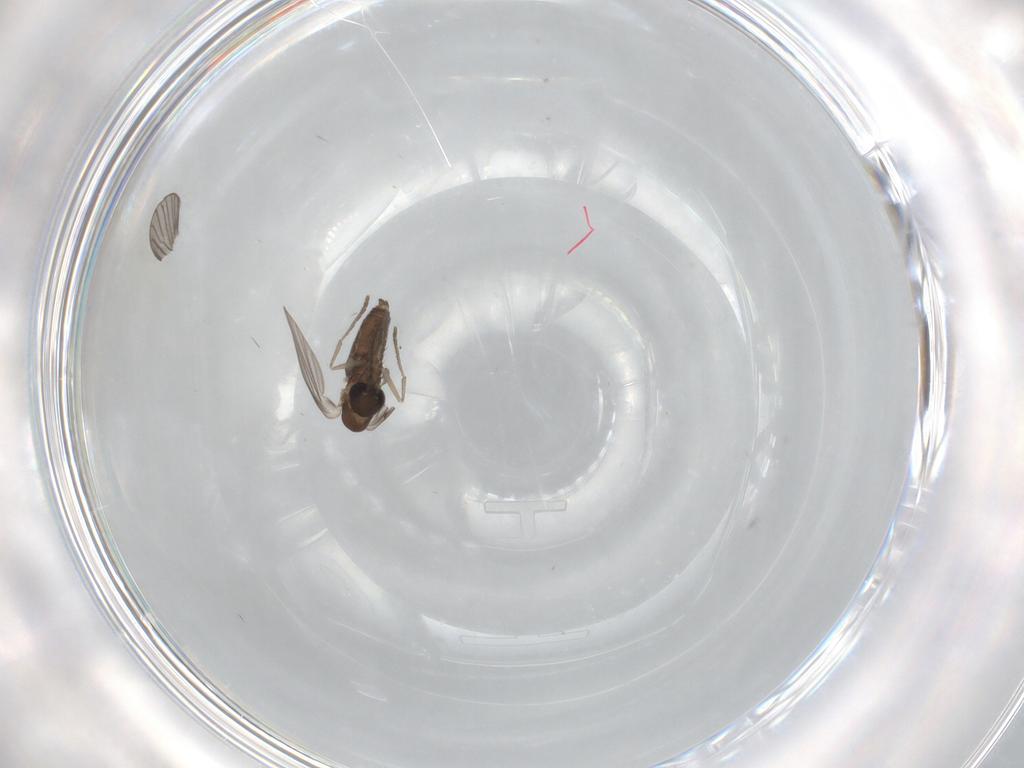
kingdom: Animalia
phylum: Arthropoda
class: Insecta
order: Diptera
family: Ceratopogonidae
